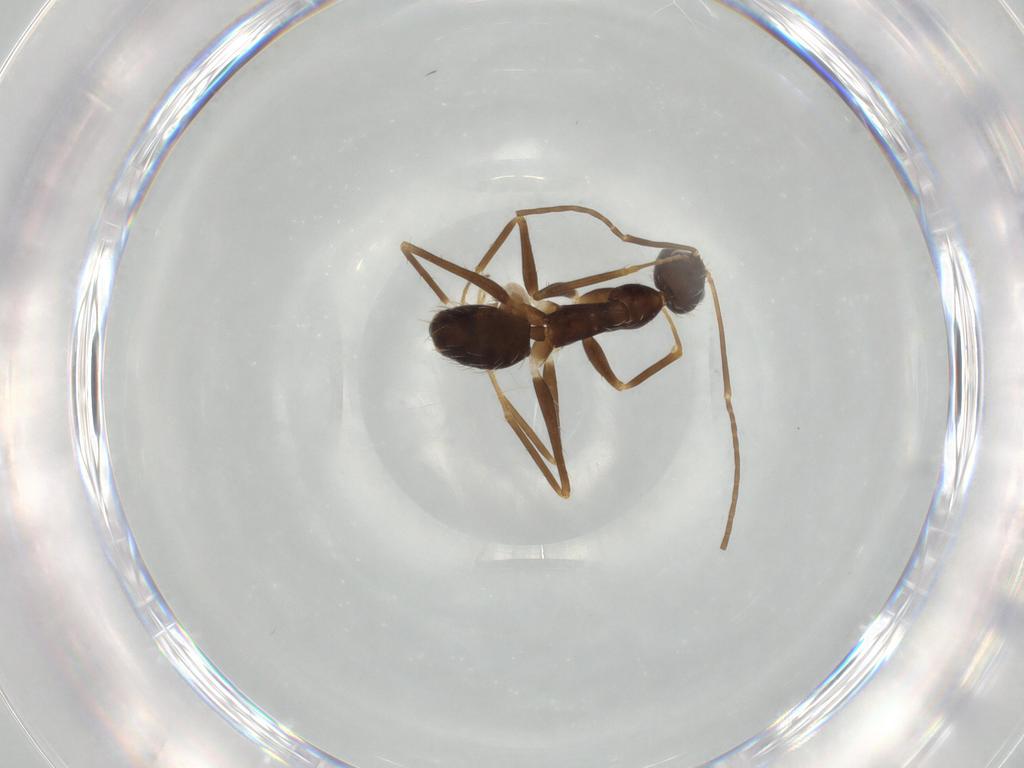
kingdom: Animalia
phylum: Arthropoda
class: Insecta
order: Hymenoptera
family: Formicidae
